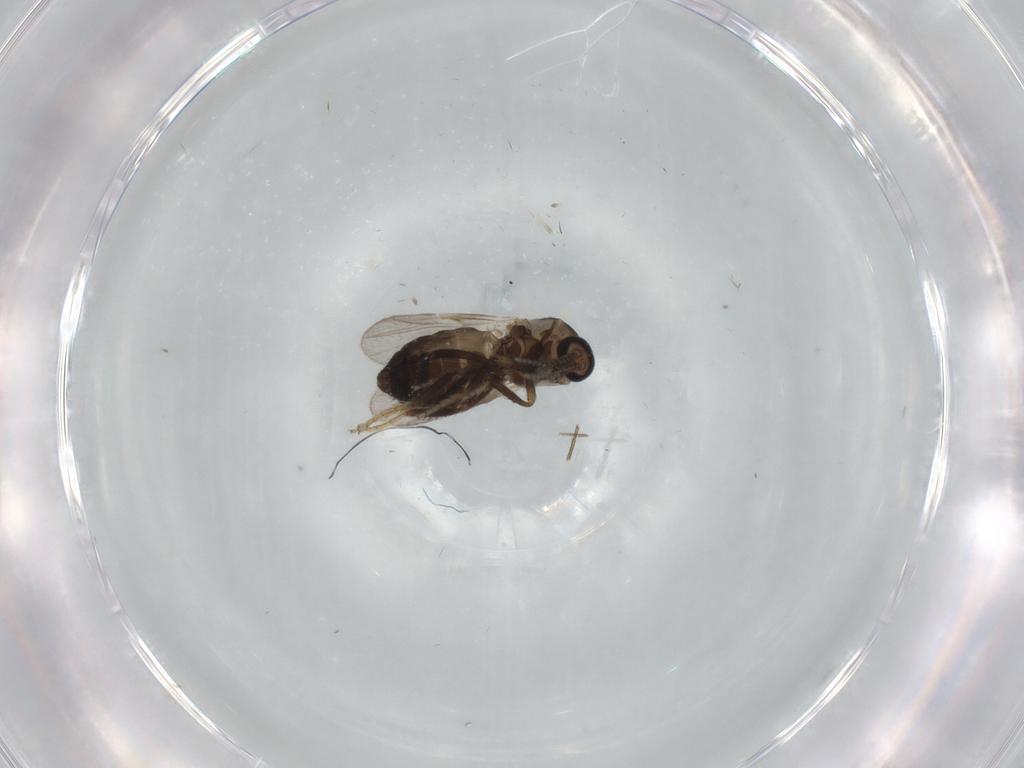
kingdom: Animalia
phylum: Arthropoda
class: Insecta
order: Diptera
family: Ceratopogonidae
